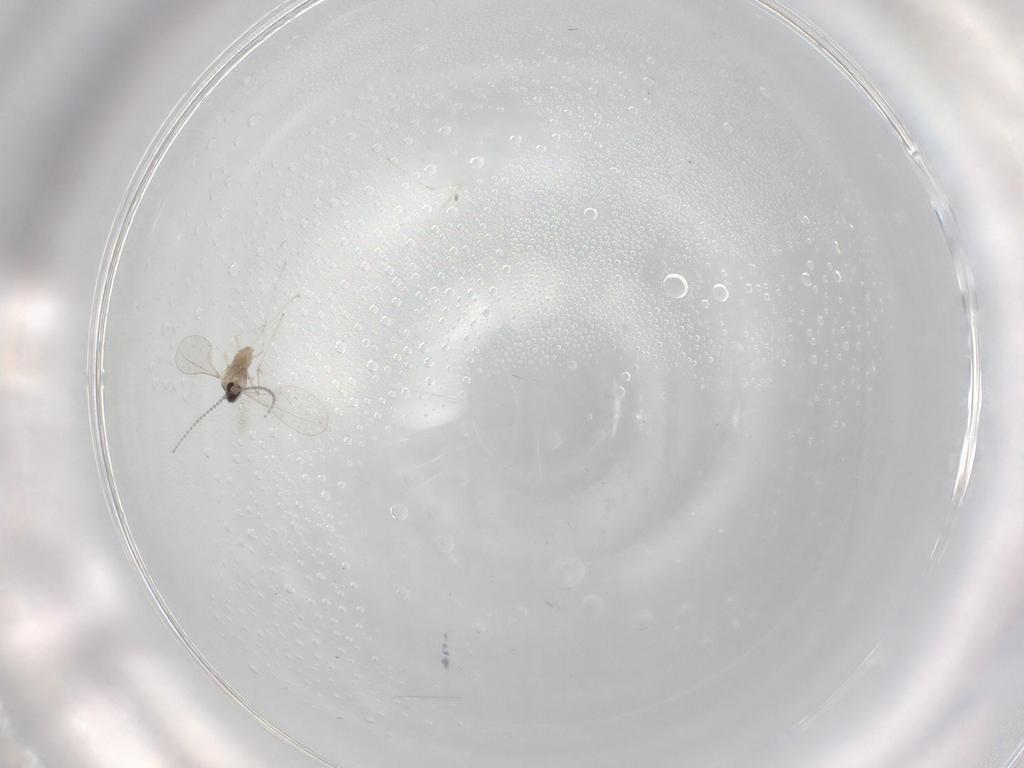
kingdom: Animalia
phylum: Arthropoda
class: Insecta
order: Diptera
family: Cecidomyiidae
